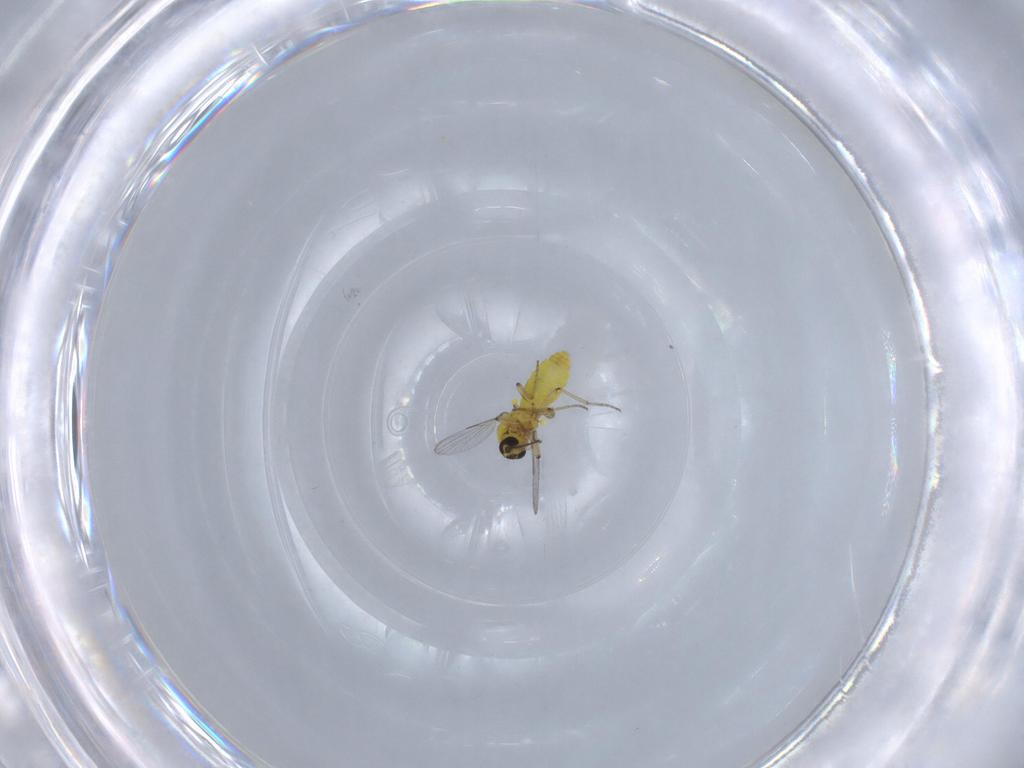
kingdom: Animalia
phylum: Arthropoda
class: Insecta
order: Diptera
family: Ceratopogonidae
